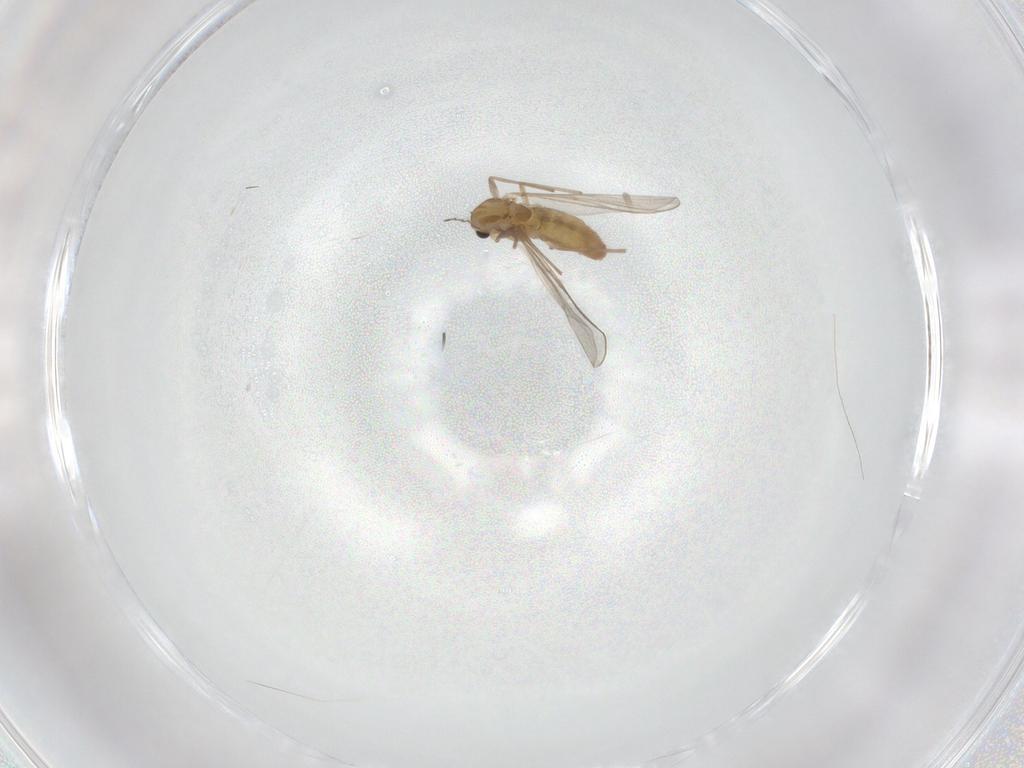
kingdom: Animalia
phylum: Arthropoda
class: Insecta
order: Diptera
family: Chironomidae
